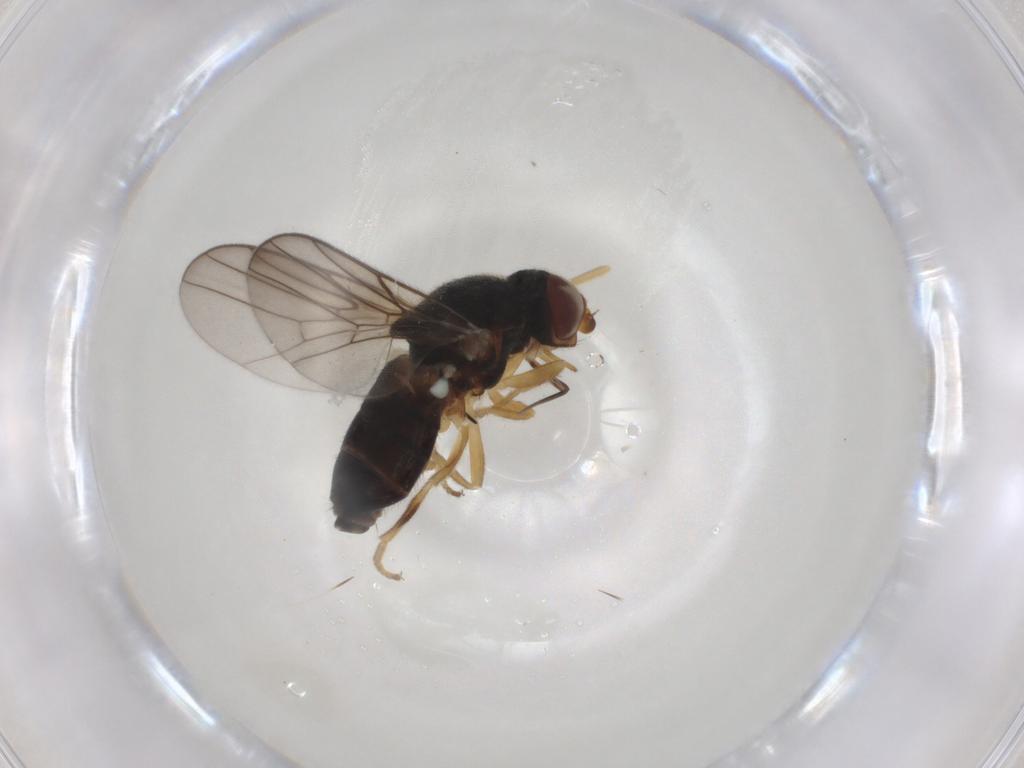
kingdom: Animalia
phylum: Arthropoda
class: Insecta
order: Diptera
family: Chloropidae
